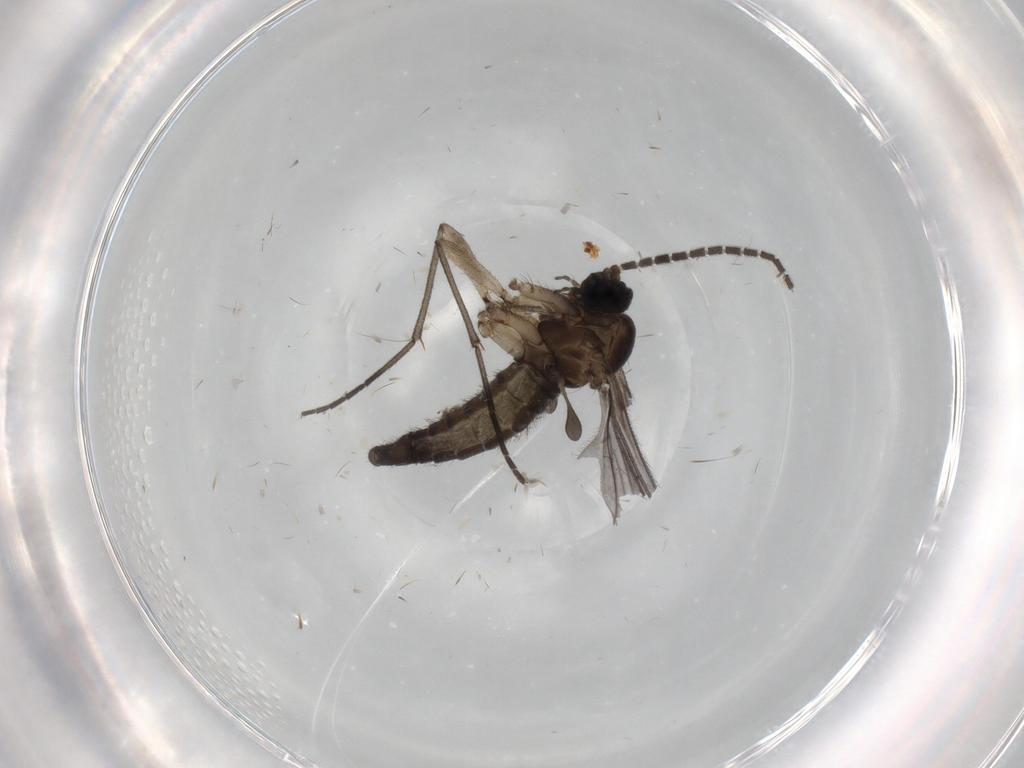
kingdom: Animalia
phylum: Arthropoda
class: Insecta
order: Diptera
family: Sciaridae
